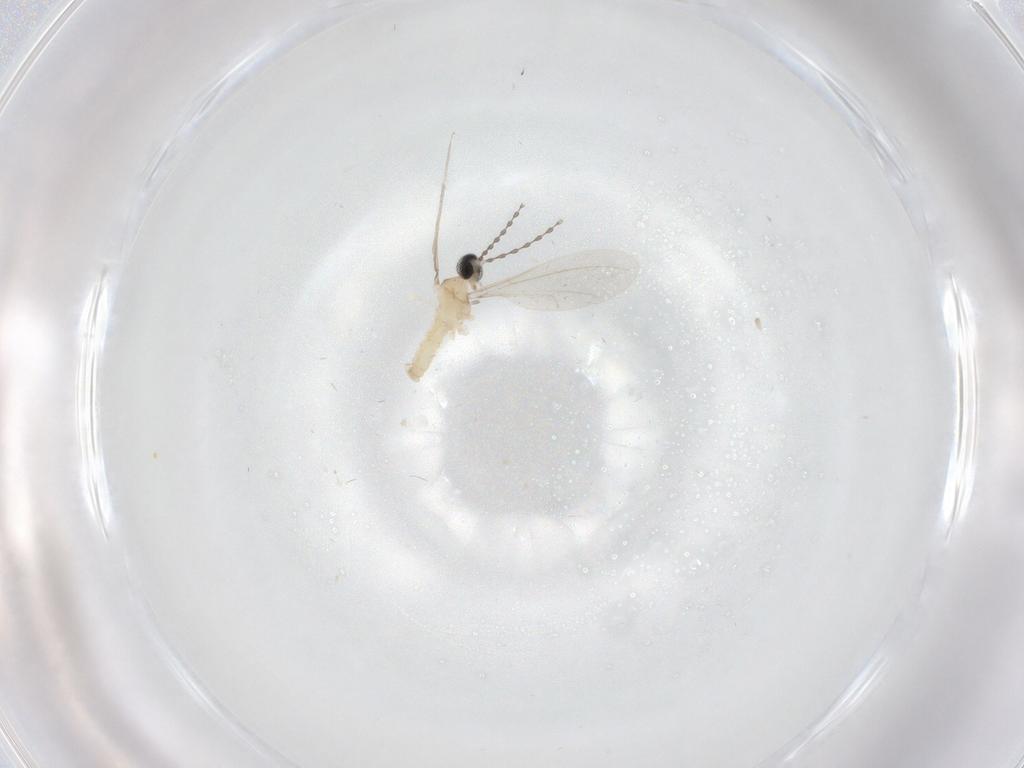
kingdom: Animalia
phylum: Arthropoda
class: Insecta
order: Diptera
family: Cecidomyiidae
